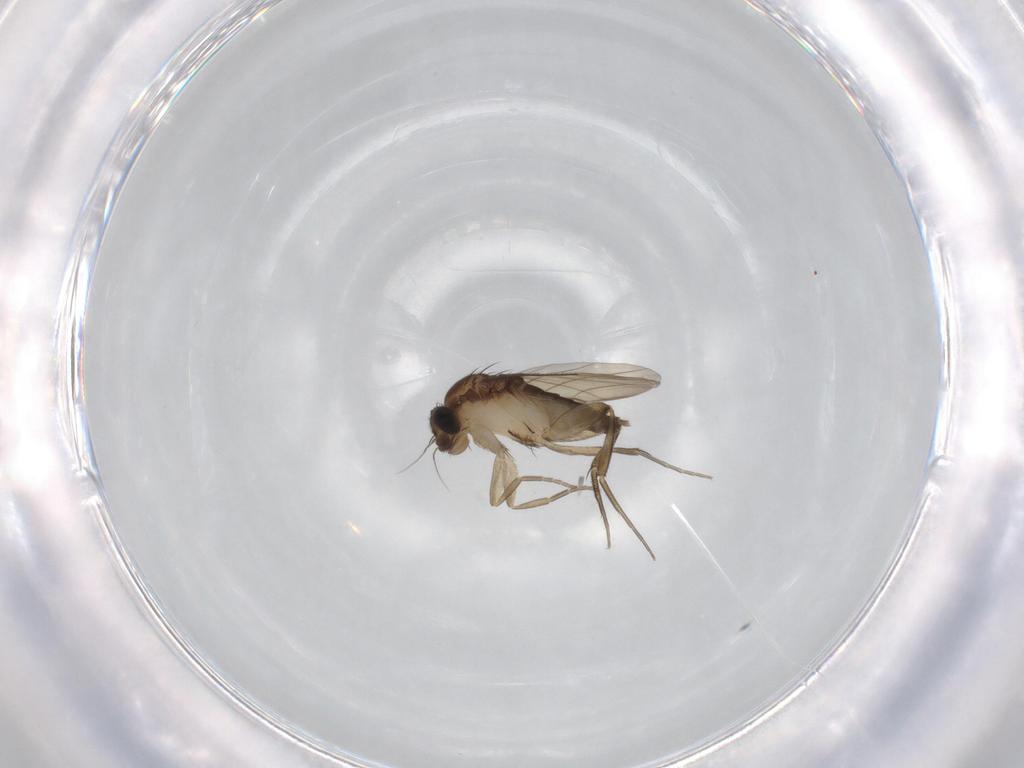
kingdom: Animalia
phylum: Arthropoda
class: Insecta
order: Diptera
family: Phoridae
